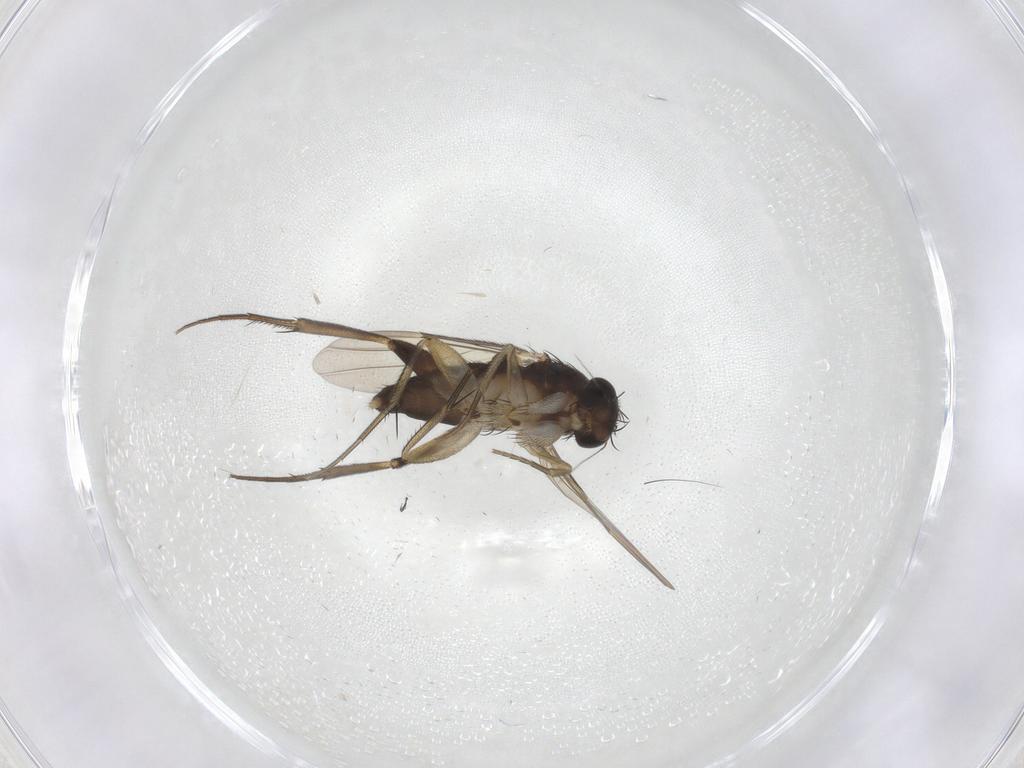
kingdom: Animalia
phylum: Arthropoda
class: Insecta
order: Diptera
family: Phoridae
